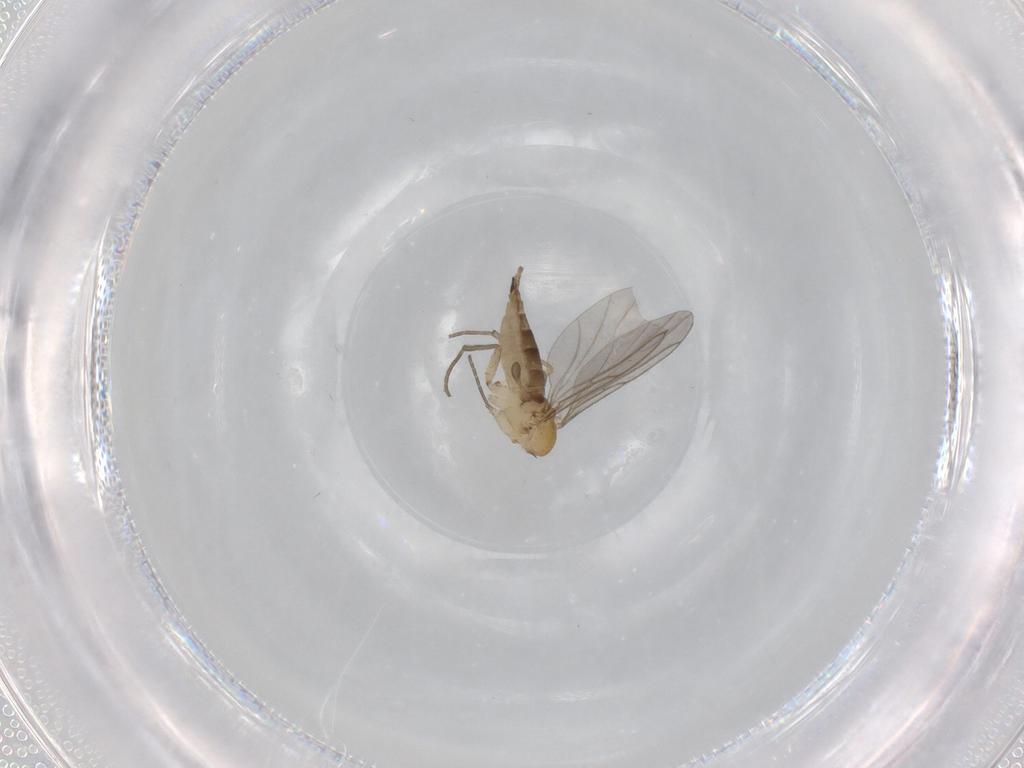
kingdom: Animalia
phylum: Arthropoda
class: Insecta
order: Diptera
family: Sciaridae
